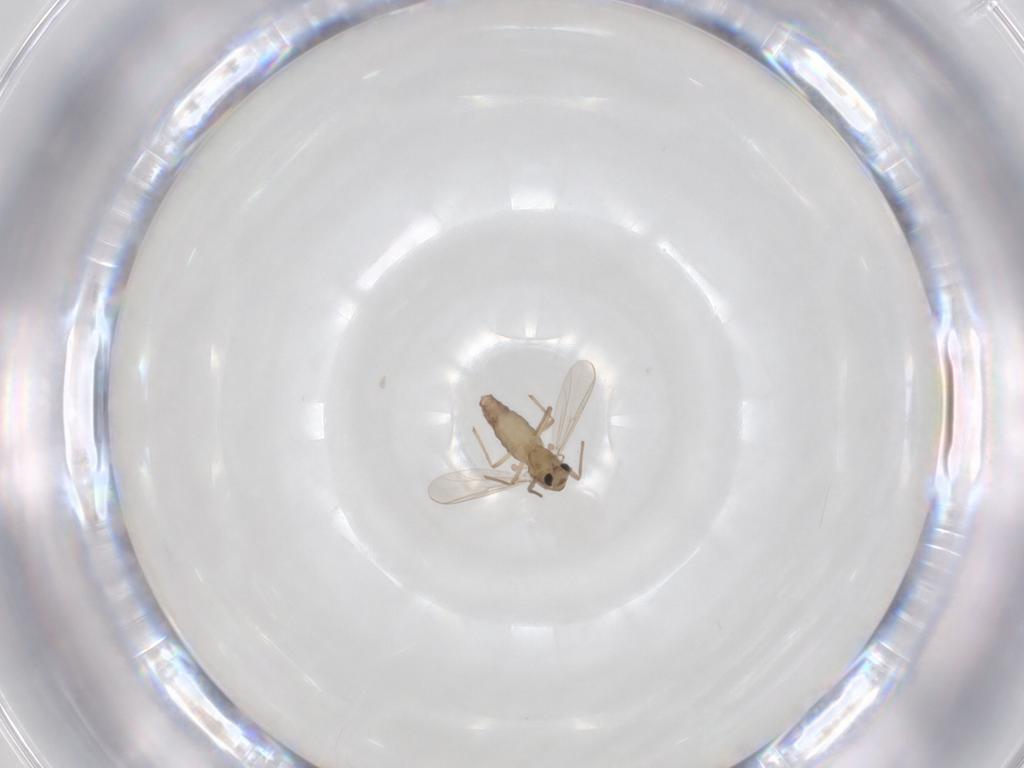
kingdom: Animalia
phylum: Arthropoda
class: Insecta
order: Diptera
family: Chironomidae
